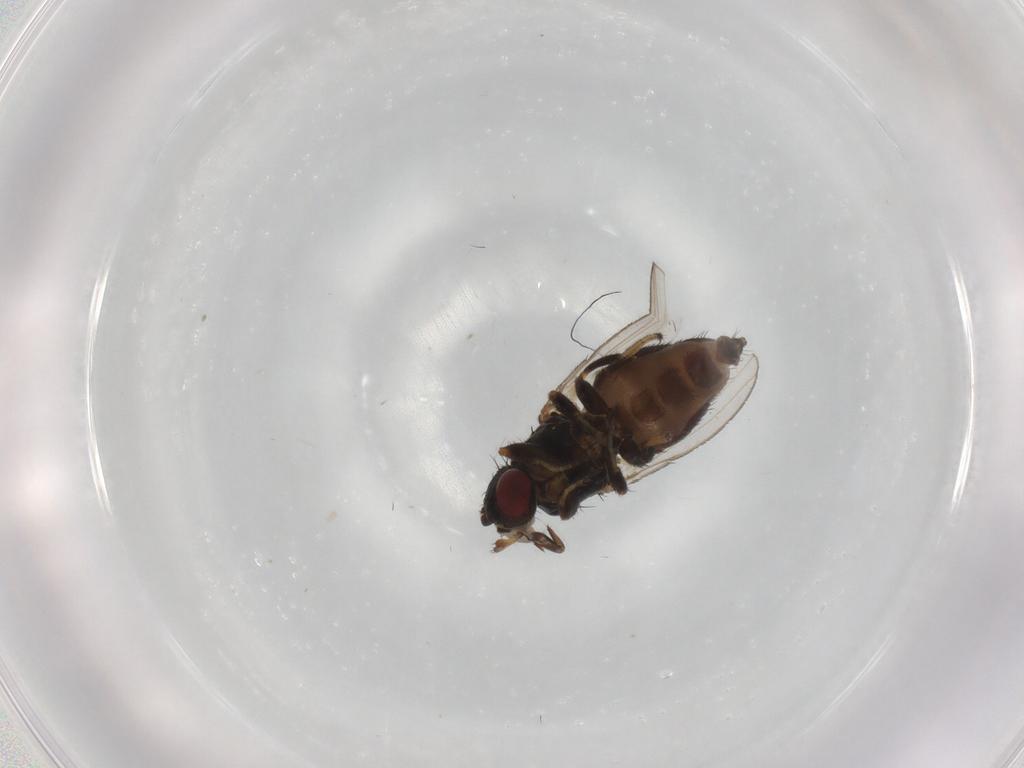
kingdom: Animalia
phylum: Arthropoda
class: Insecta
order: Diptera
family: Milichiidae
